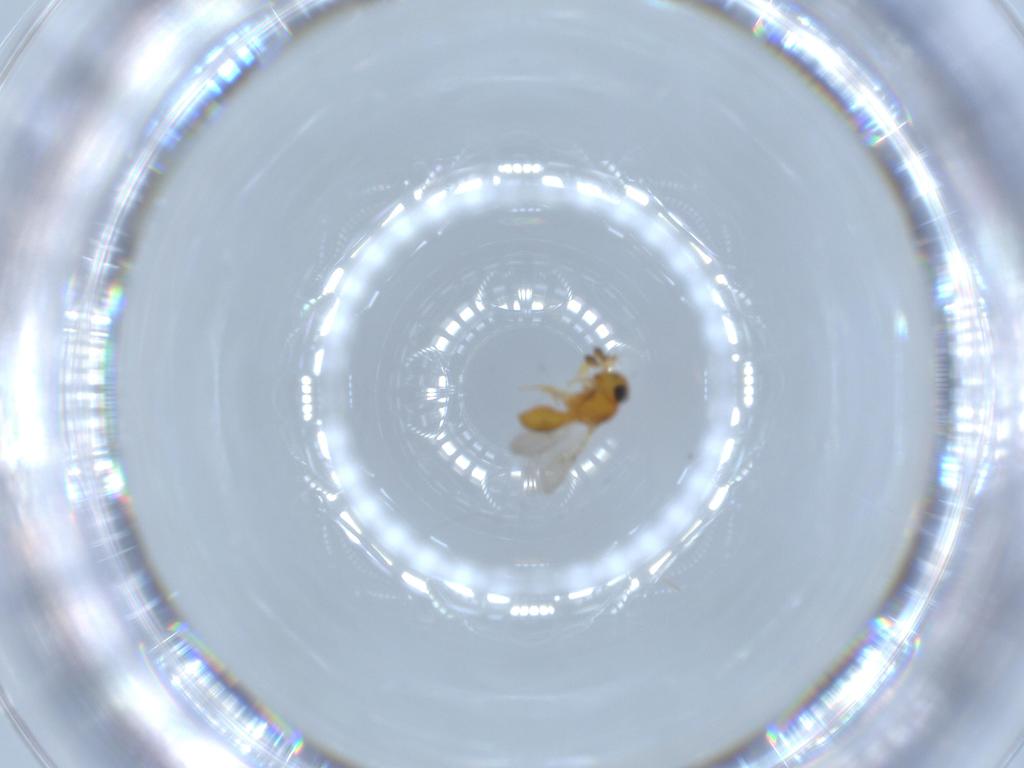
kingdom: Animalia
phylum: Arthropoda
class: Insecta
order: Hymenoptera
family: Scelionidae
